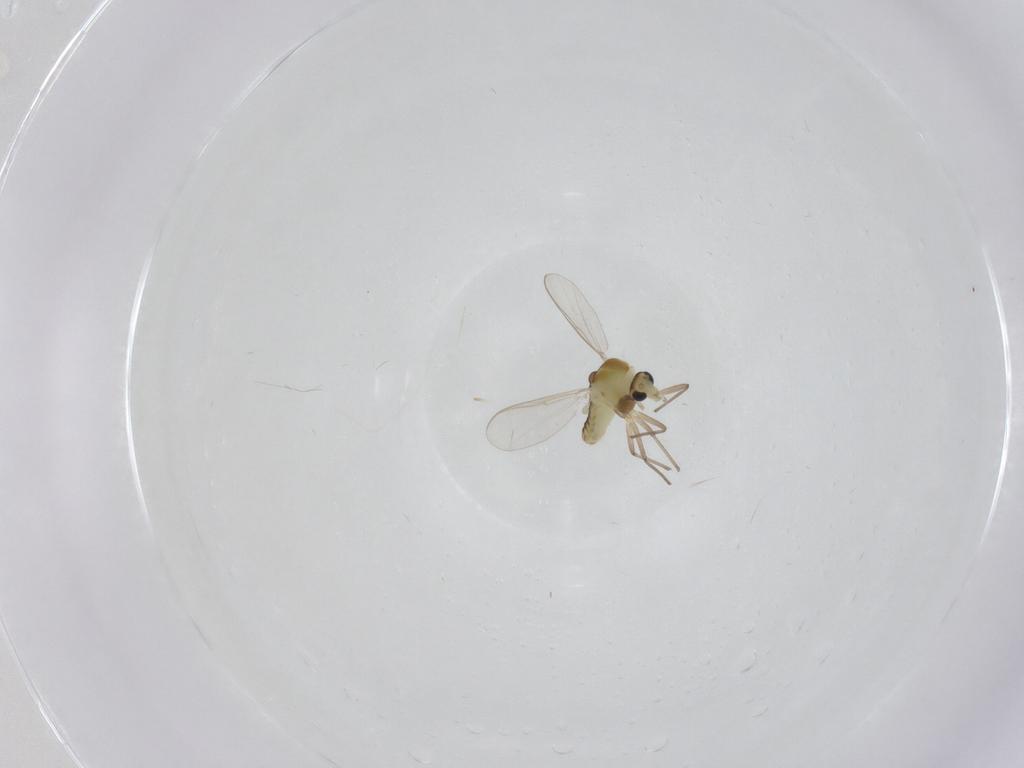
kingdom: Animalia
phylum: Arthropoda
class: Insecta
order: Diptera
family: Chironomidae
